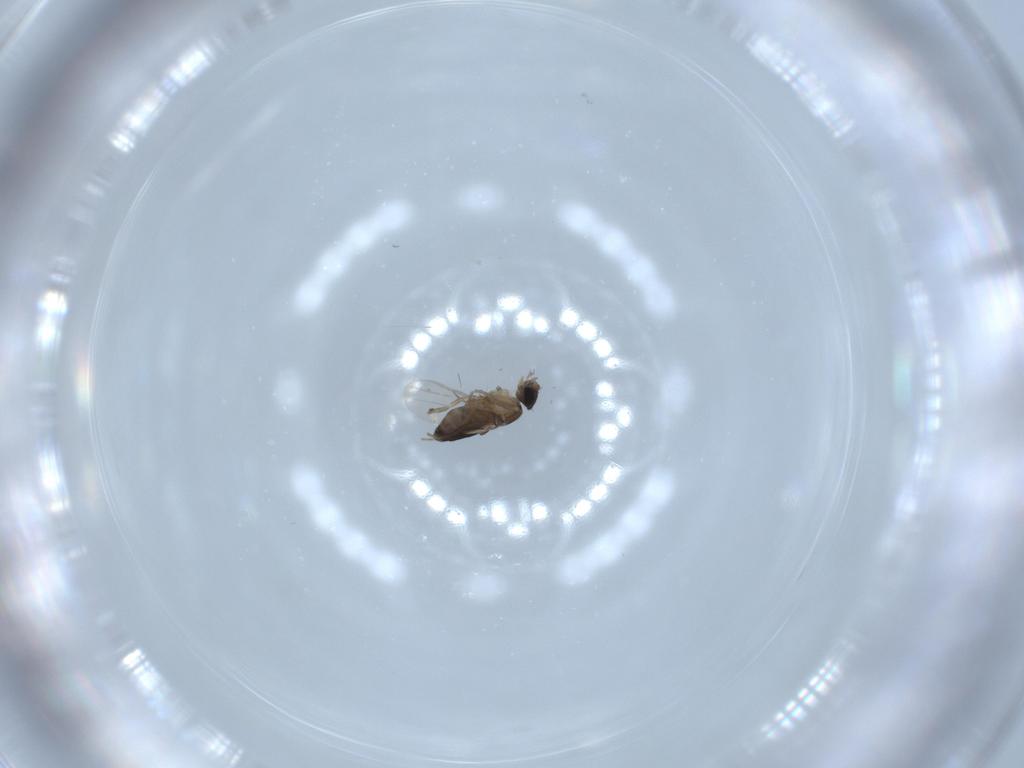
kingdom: Animalia
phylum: Arthropoda
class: Insecta
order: Diptera
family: Phoridae
